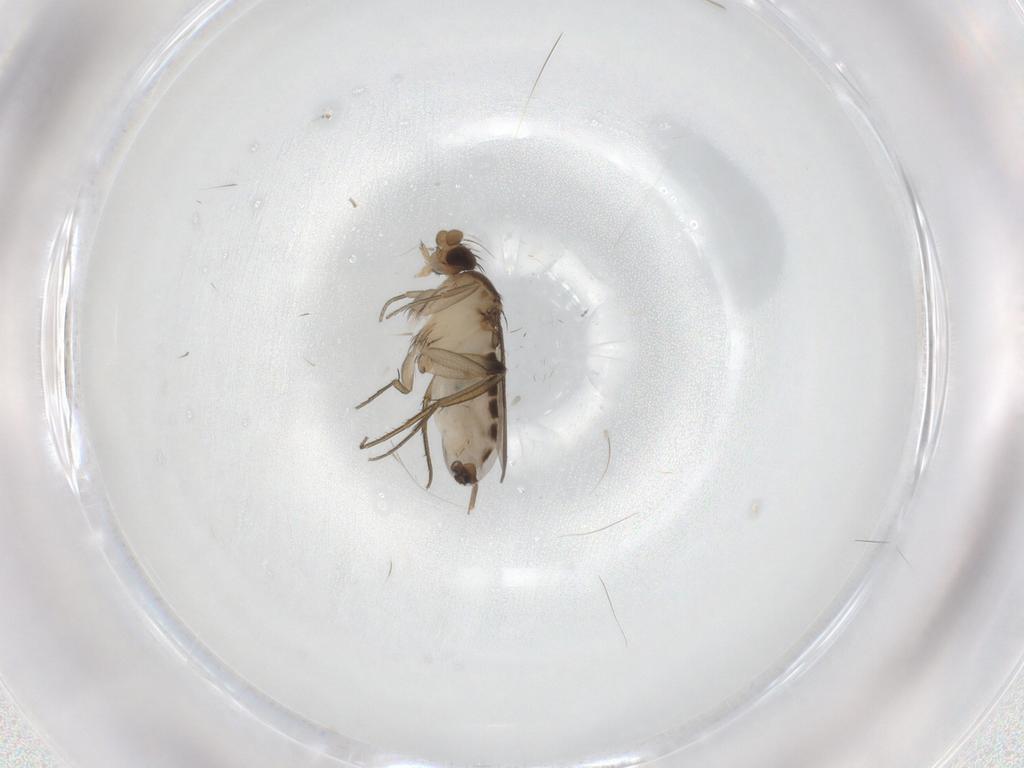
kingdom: Animalia
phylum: Arthropoda
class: Insecta
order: Diptera
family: Phoridae
